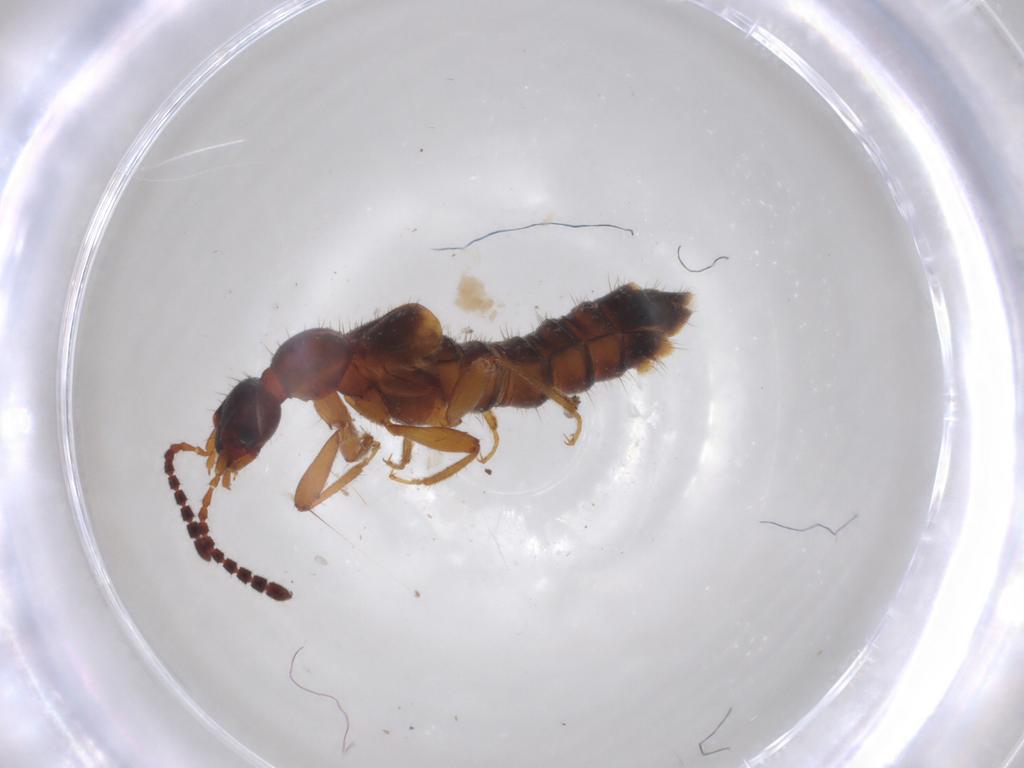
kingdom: Animalia
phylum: Arthropoda
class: Insecta
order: Coleoptera
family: Staphylinidae
